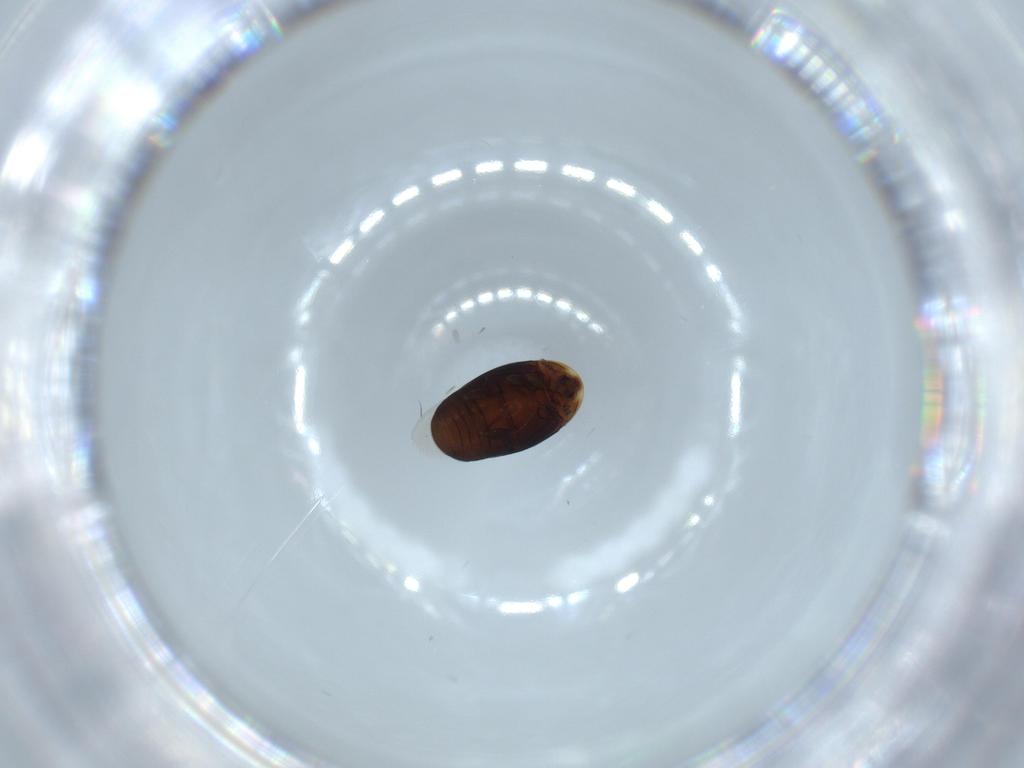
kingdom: Animalia
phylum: Arthropoda
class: Insecta
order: Coleoptera
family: Corylophidae
